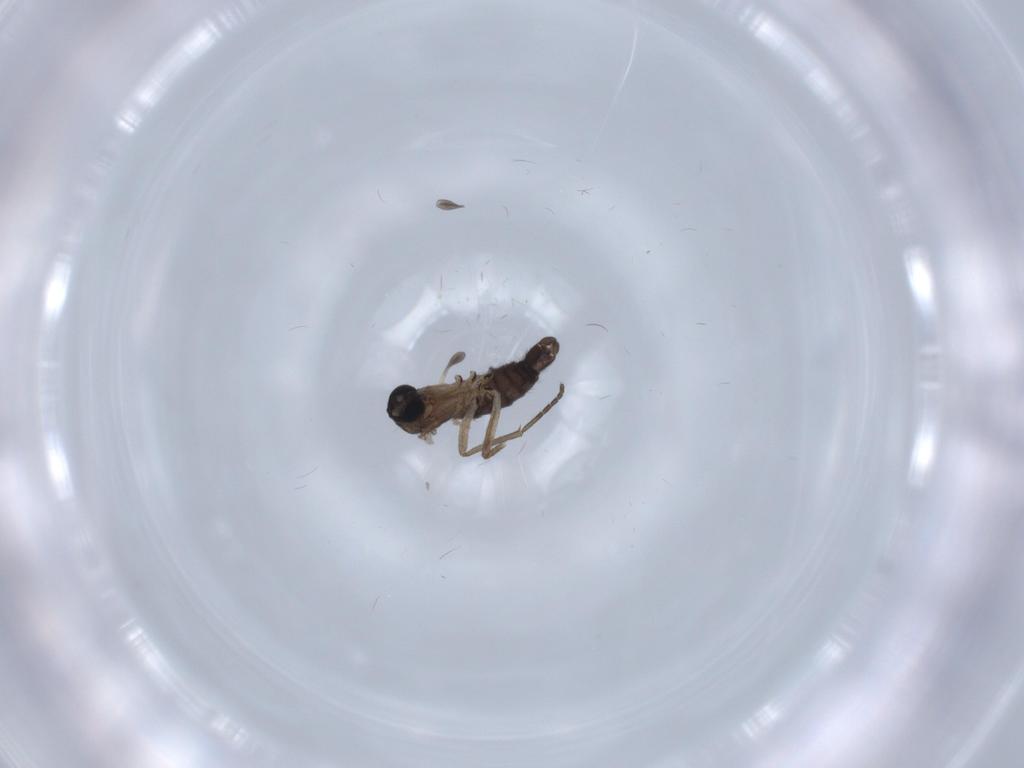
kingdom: Animalia
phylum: Arthropoda
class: Insecta
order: Diptera
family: Sciaridae
